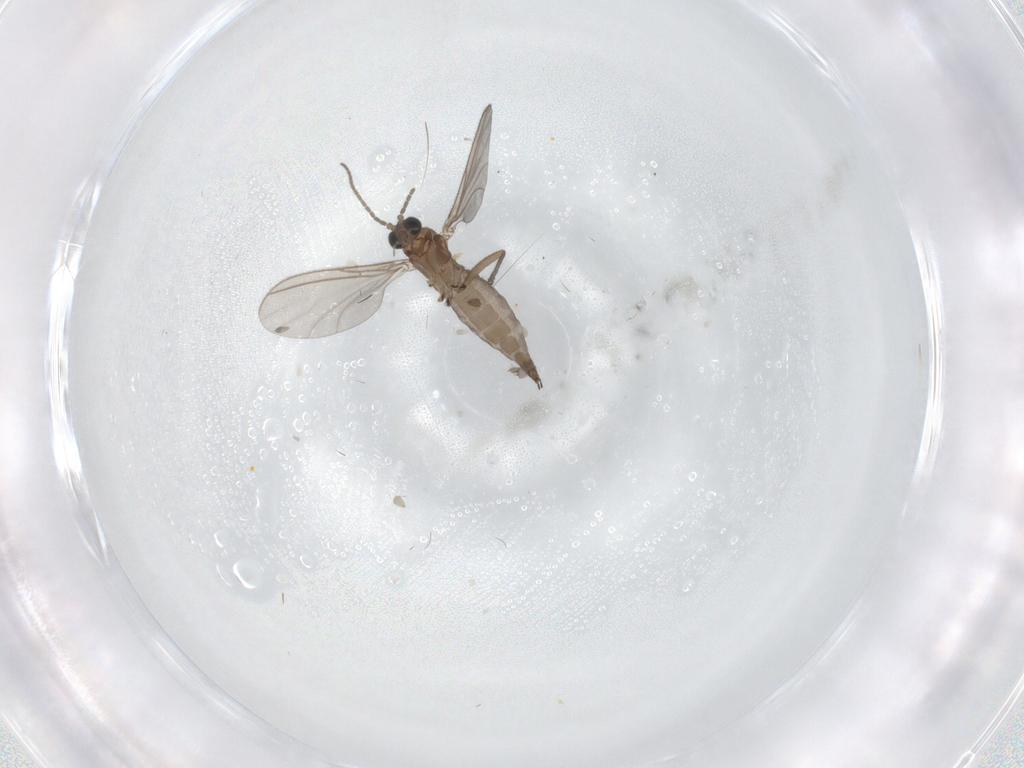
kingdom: Animalia
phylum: Arthropoda
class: Insecta
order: Diptera
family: Sciaridae
